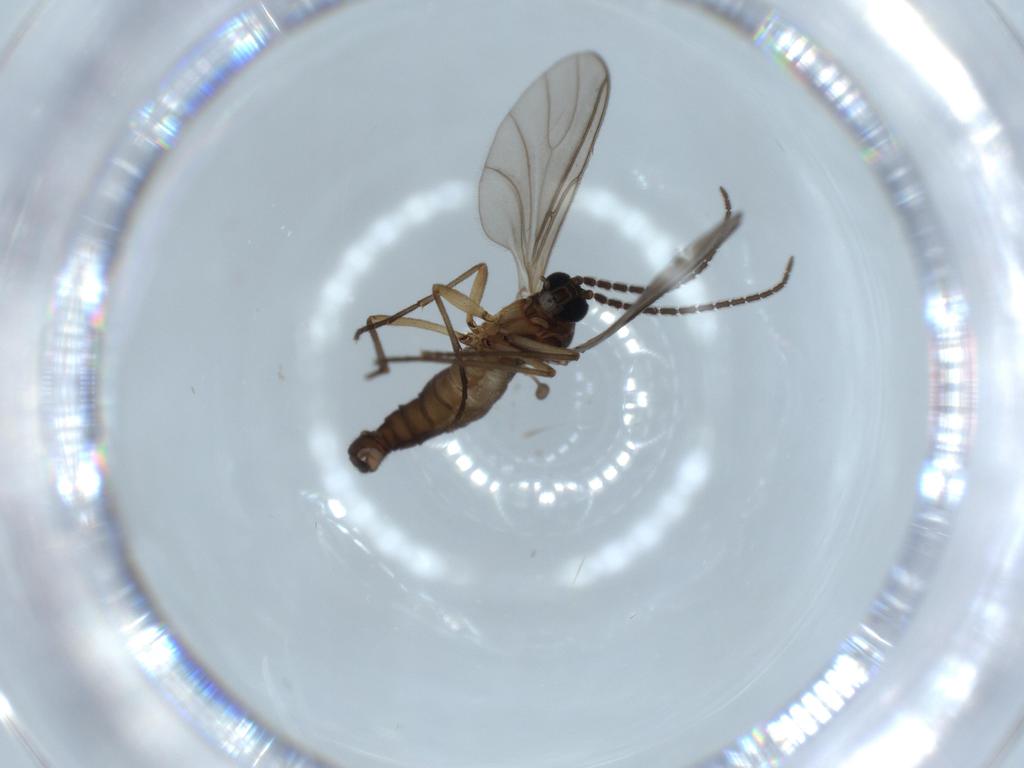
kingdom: Animalia
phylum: Arthropoda
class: Insecta
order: Diptera
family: Sciaridae
